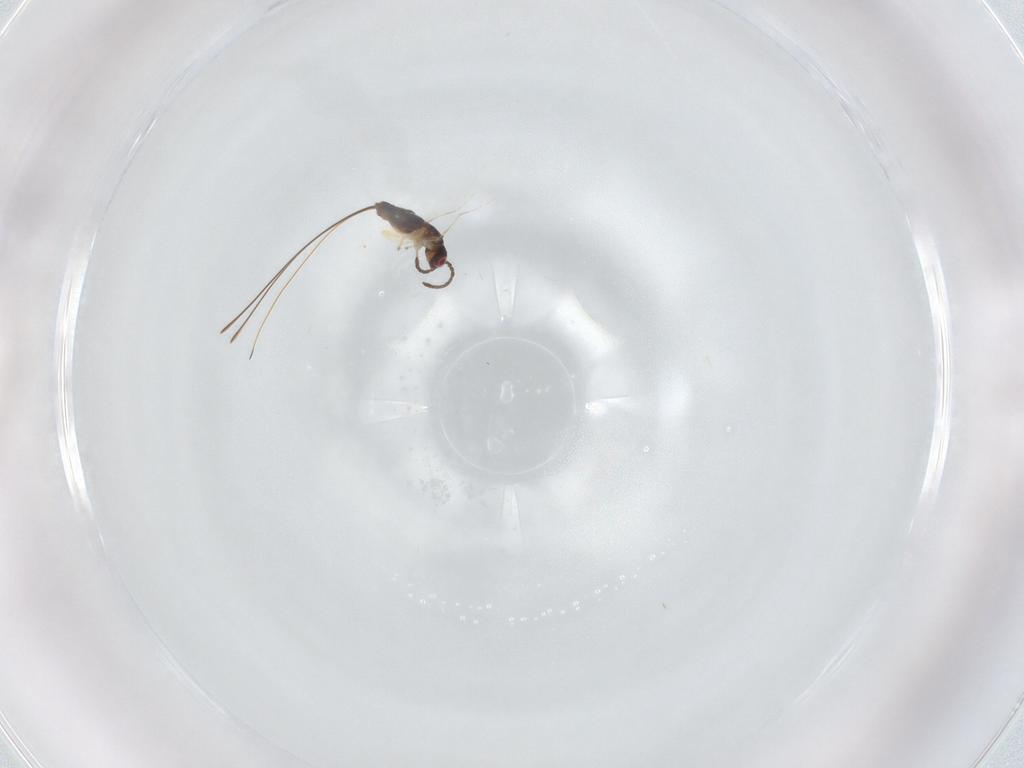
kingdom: Animalia
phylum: Arthropoda
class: Insecta
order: Hymenoptera
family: Pteromalidae
